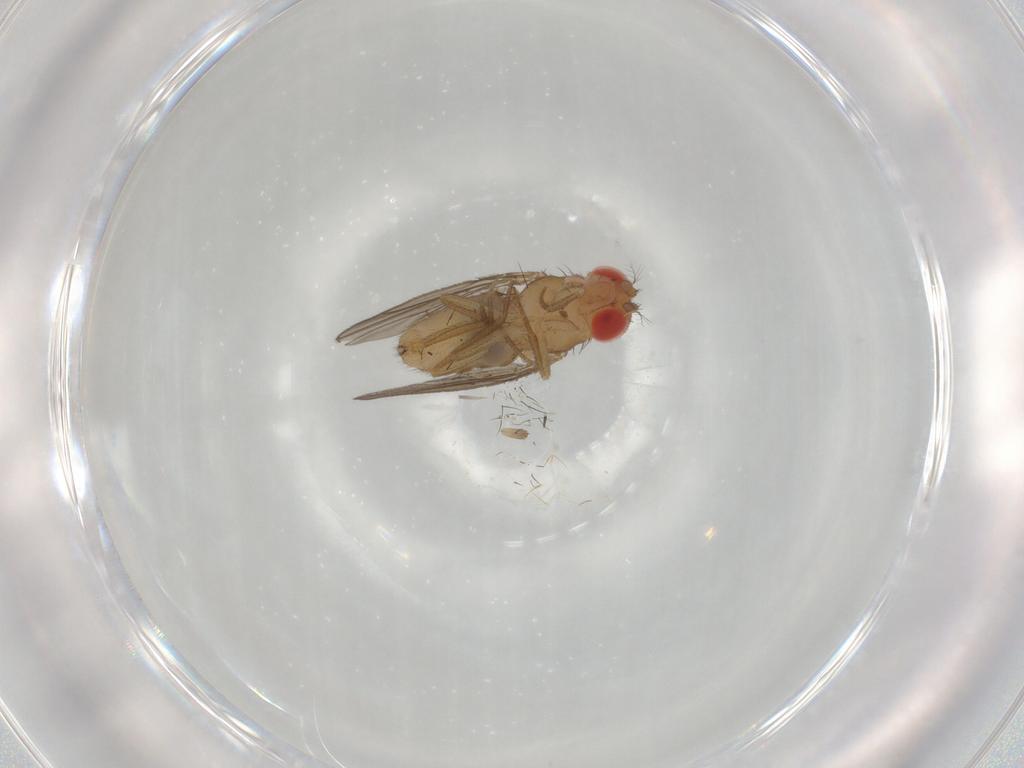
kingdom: Animalia
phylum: Arthropoda
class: Insecta
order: Diptera
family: Drosophilidae
